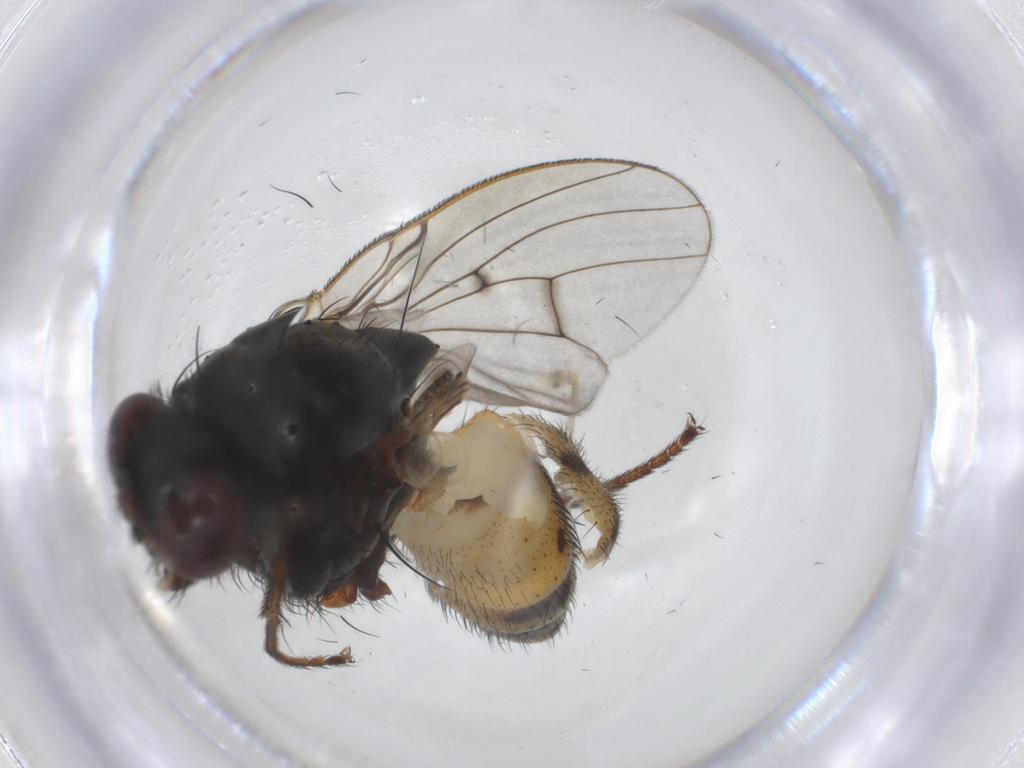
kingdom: Animalia
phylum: Arthropoda
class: Insecta
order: Diptera
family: Muscidae
